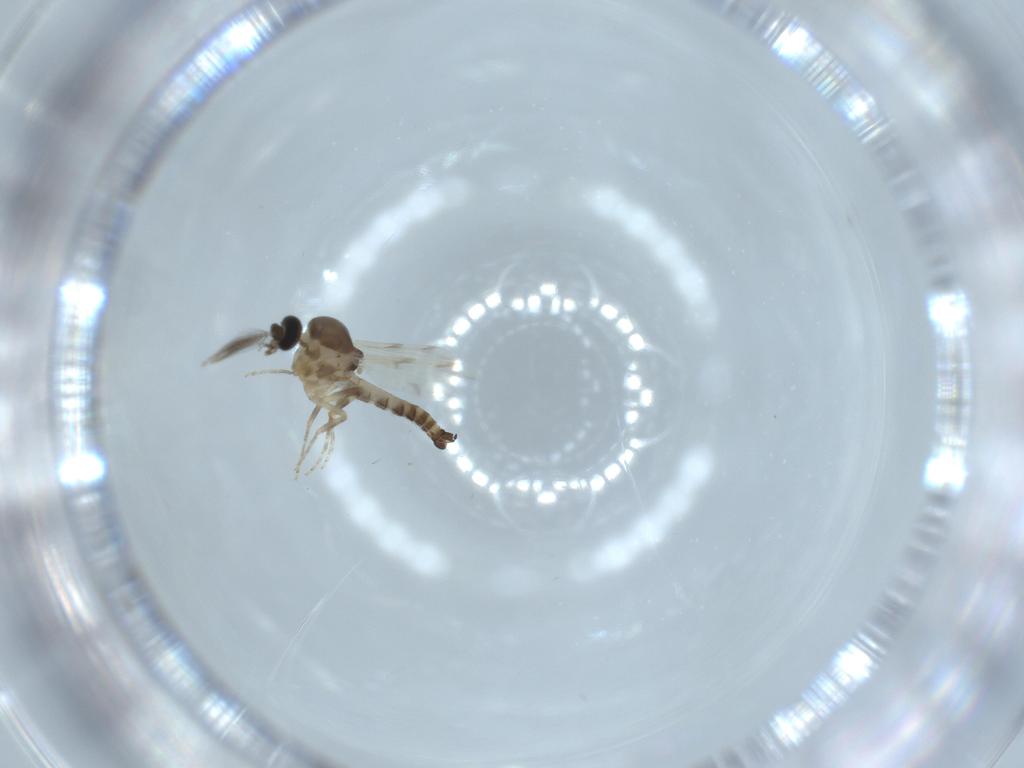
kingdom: Animalia
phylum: Arthropoda
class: Insecta
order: Diptera
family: Ceratopogonidae
